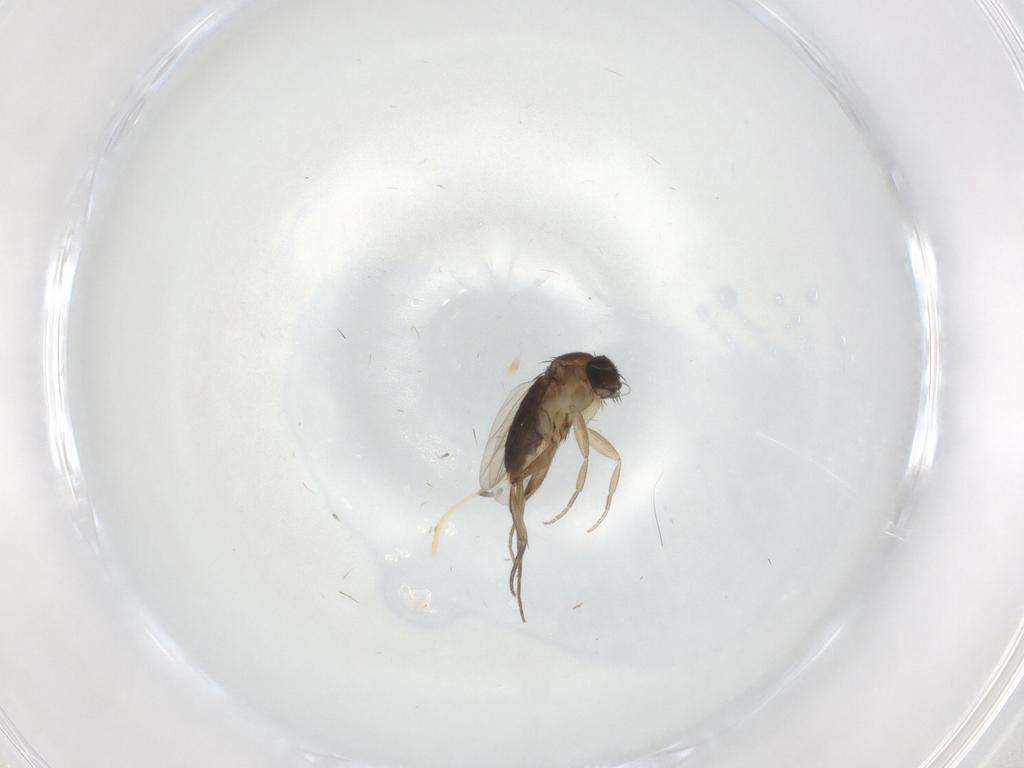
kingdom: Animalia
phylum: Arthropoda
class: Insecta
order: Diptera
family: Phoridae
